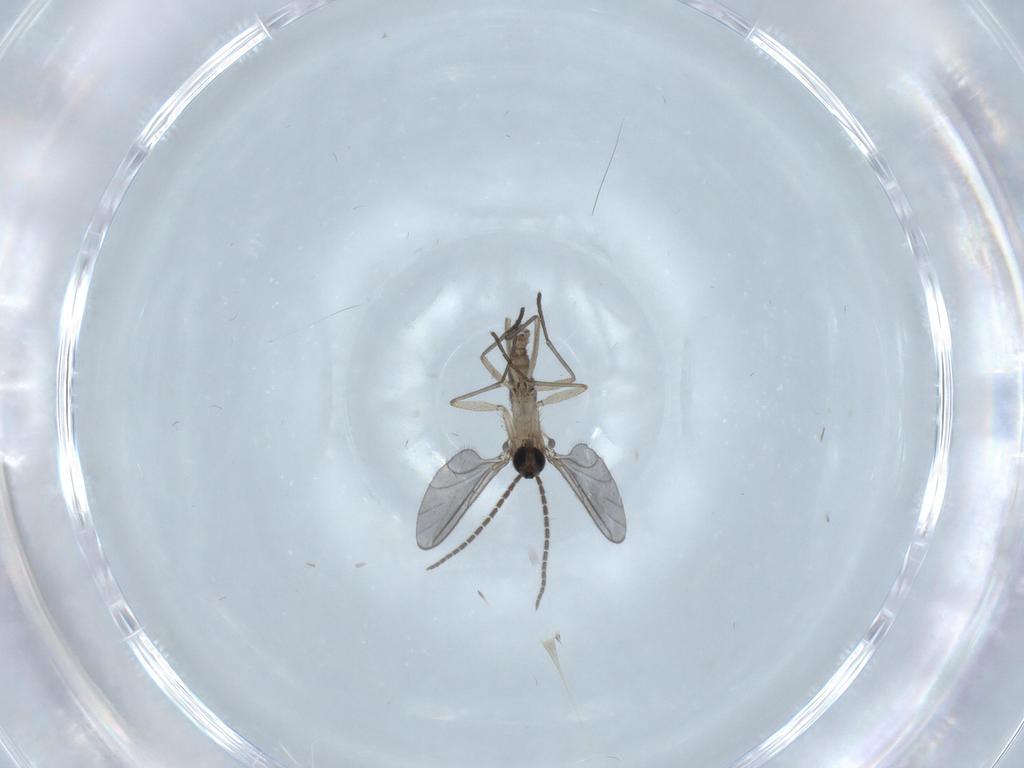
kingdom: Animalia
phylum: Arthropoda
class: Insecta
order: Diptera
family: Sciaridae
